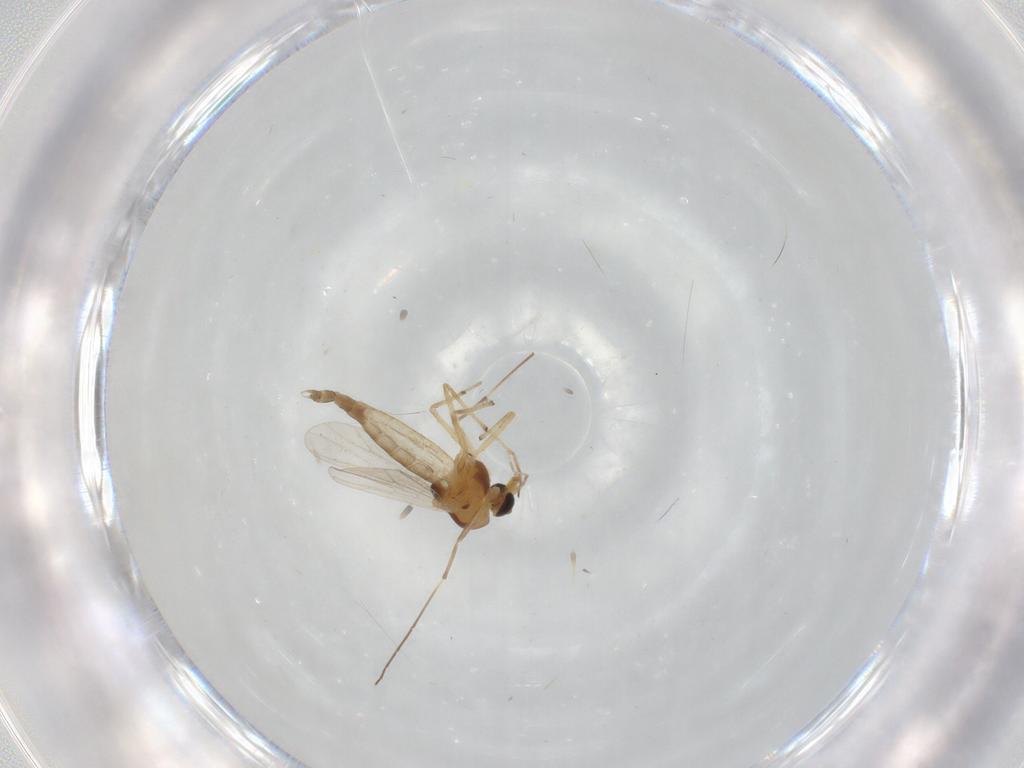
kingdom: Animalia
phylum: Arthropoda
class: Insecta
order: Diptera
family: Chironomidae
